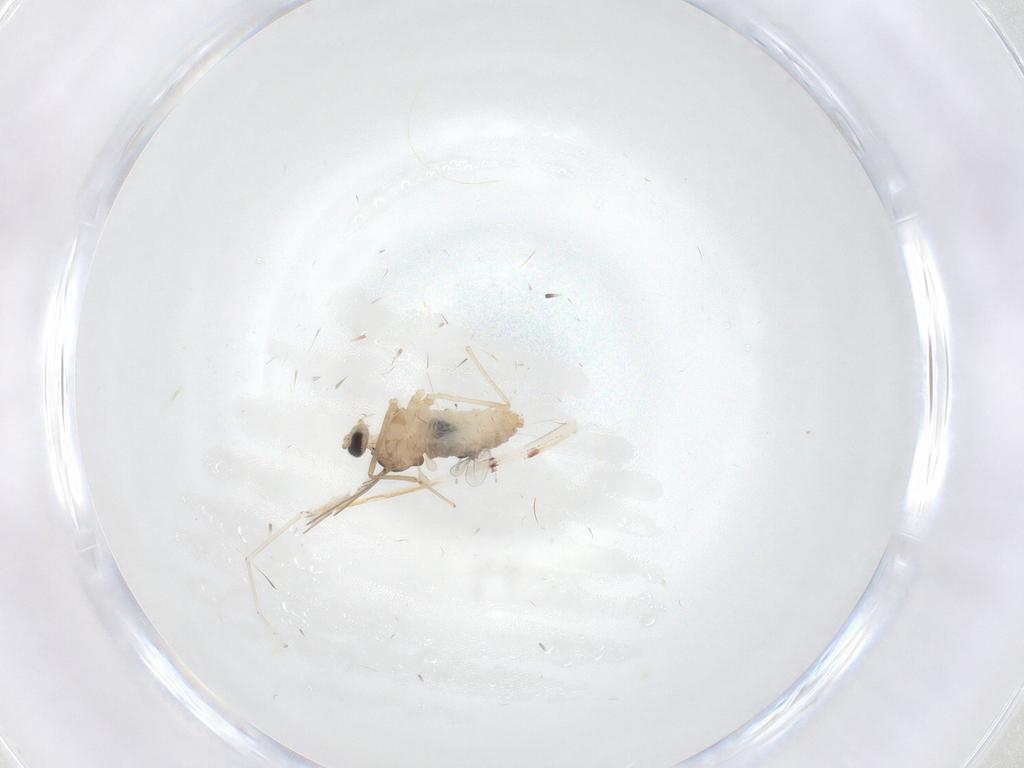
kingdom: Animalia
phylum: Arthropoda
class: Insecta
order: Diptera
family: Cecidomyiidae
